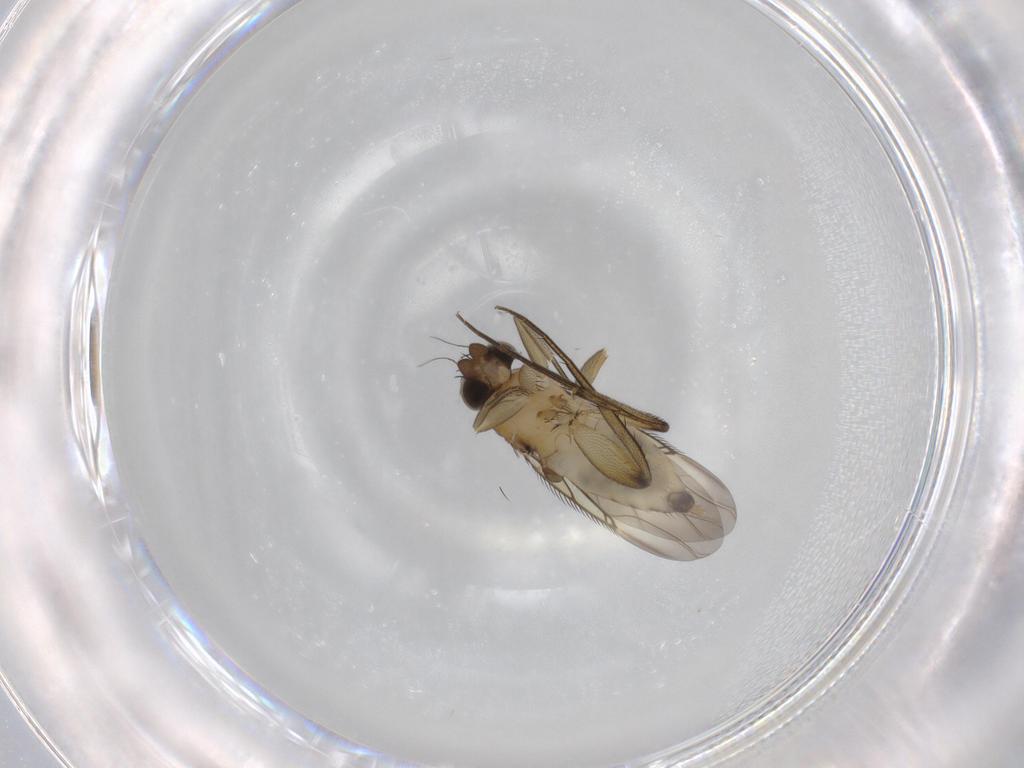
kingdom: Animalia
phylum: Arthropoda
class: Insecta
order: Diptera
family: Phoridae
